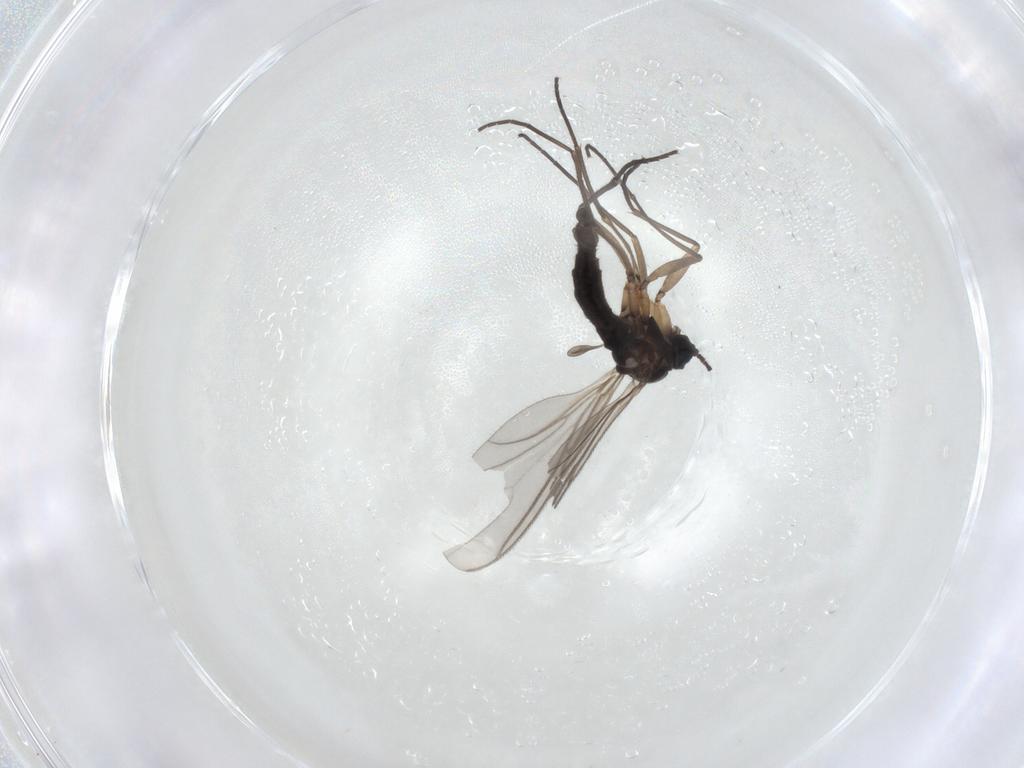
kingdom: Animalia
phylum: Arthropoda
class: Insecta
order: Diptera
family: Sciaridae
